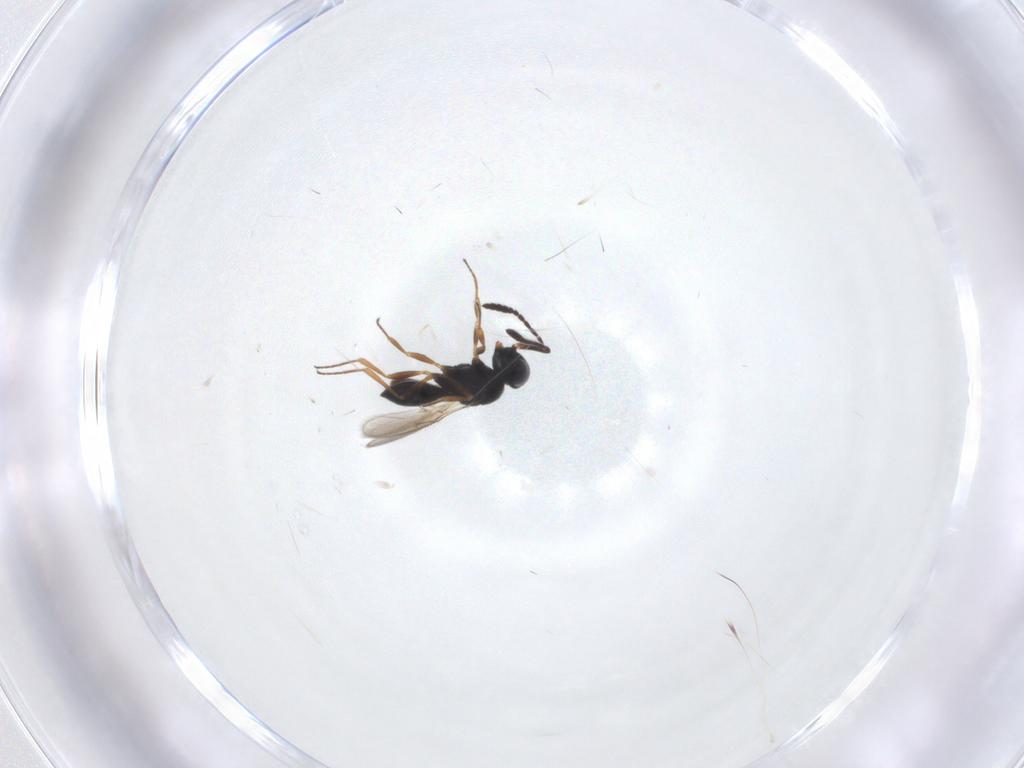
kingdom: Animalia
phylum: Arthropoda
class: Insecta
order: Hymenoptera
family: Scelionidae
